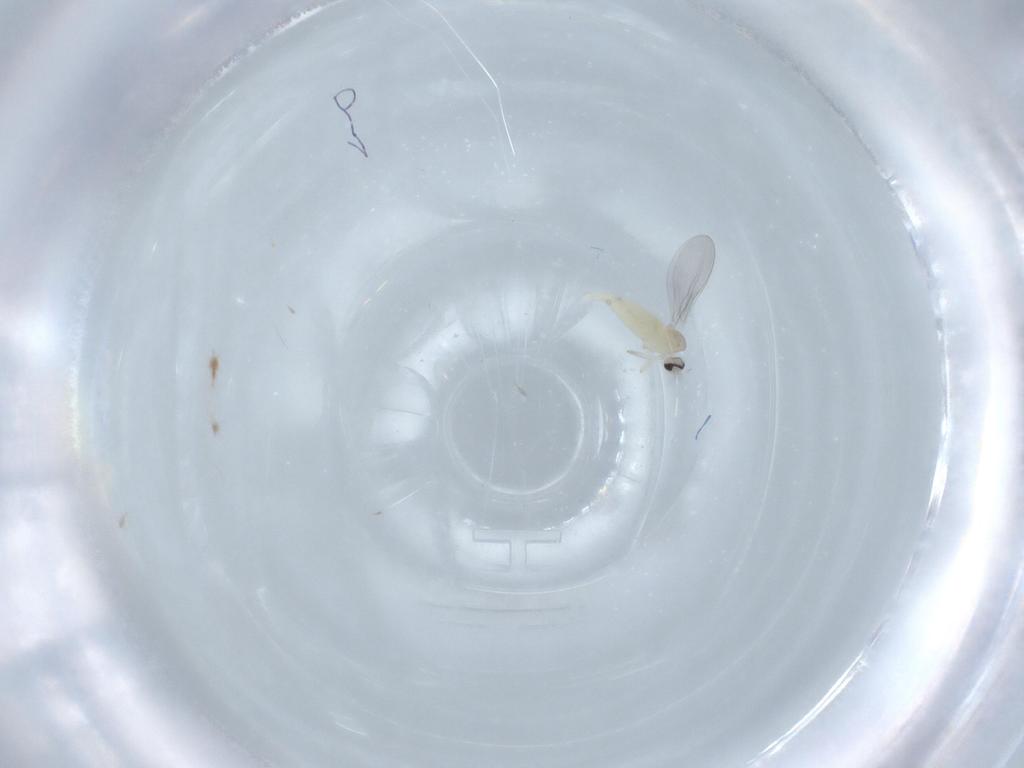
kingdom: Animalia
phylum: Arthropoda
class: Insecta
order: Diptera
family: Cecidomyiidae
